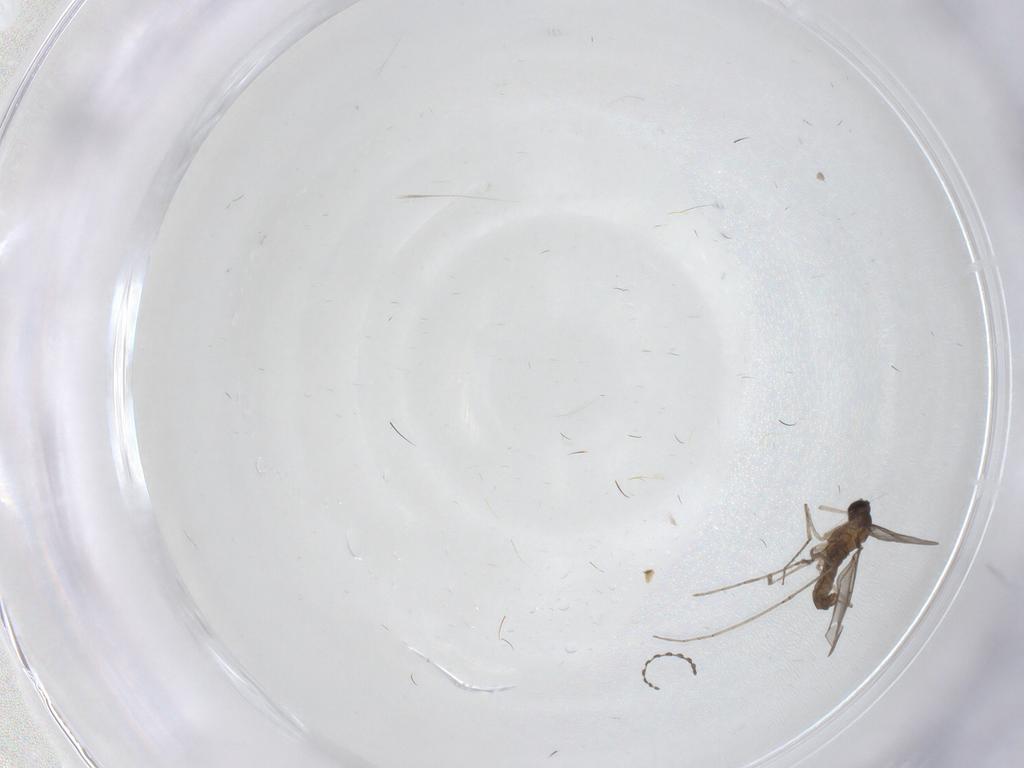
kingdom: Animalia
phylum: Arthropoda
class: Insecta
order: Diptera
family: Cecidomyiidae
